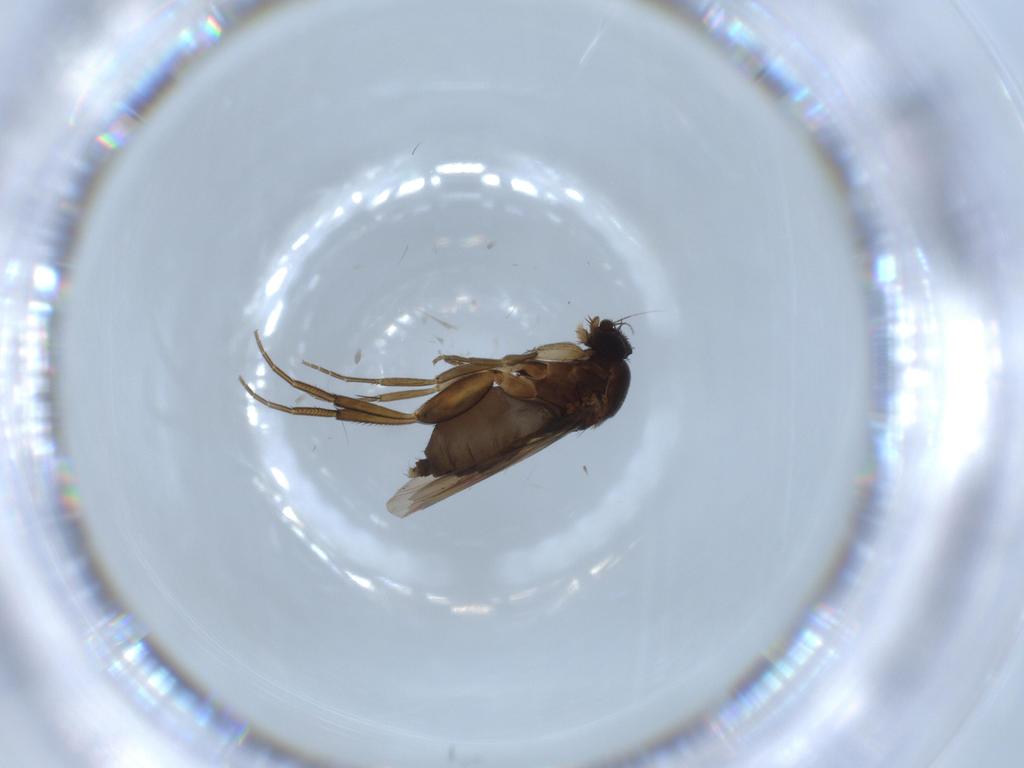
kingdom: Animalia
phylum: Arthropoda
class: Insecta
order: Diptera
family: Phoridae
